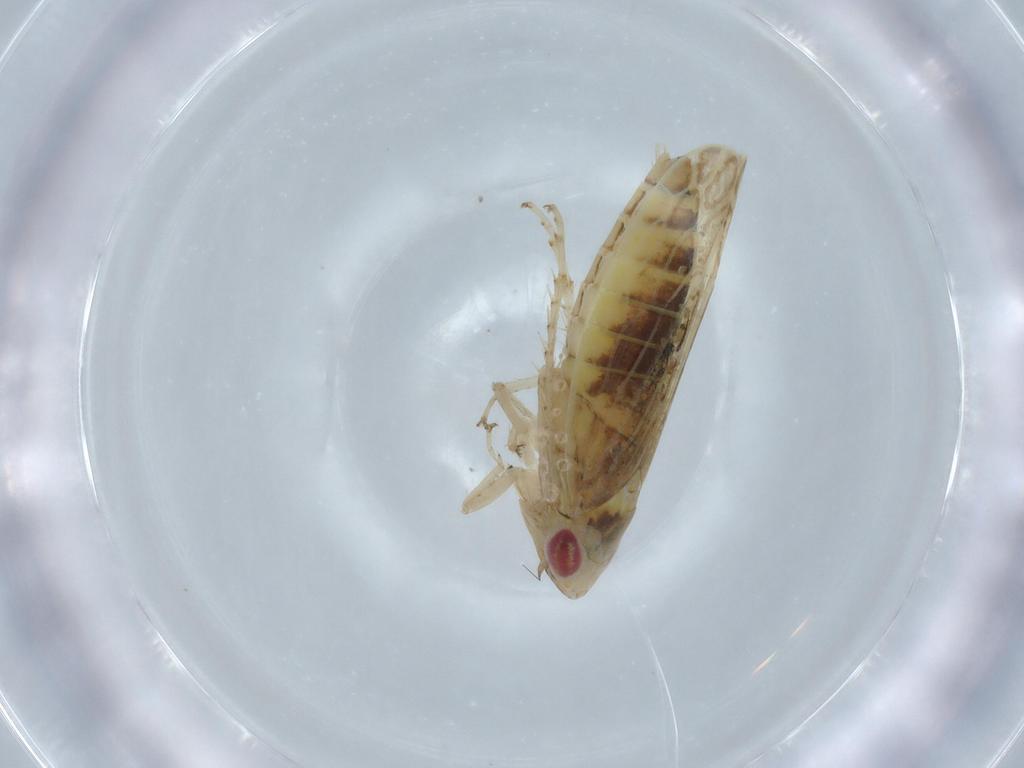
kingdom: Animalia
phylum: Arthropoda
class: Insecta
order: Hemiptera
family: Cicadellidae
